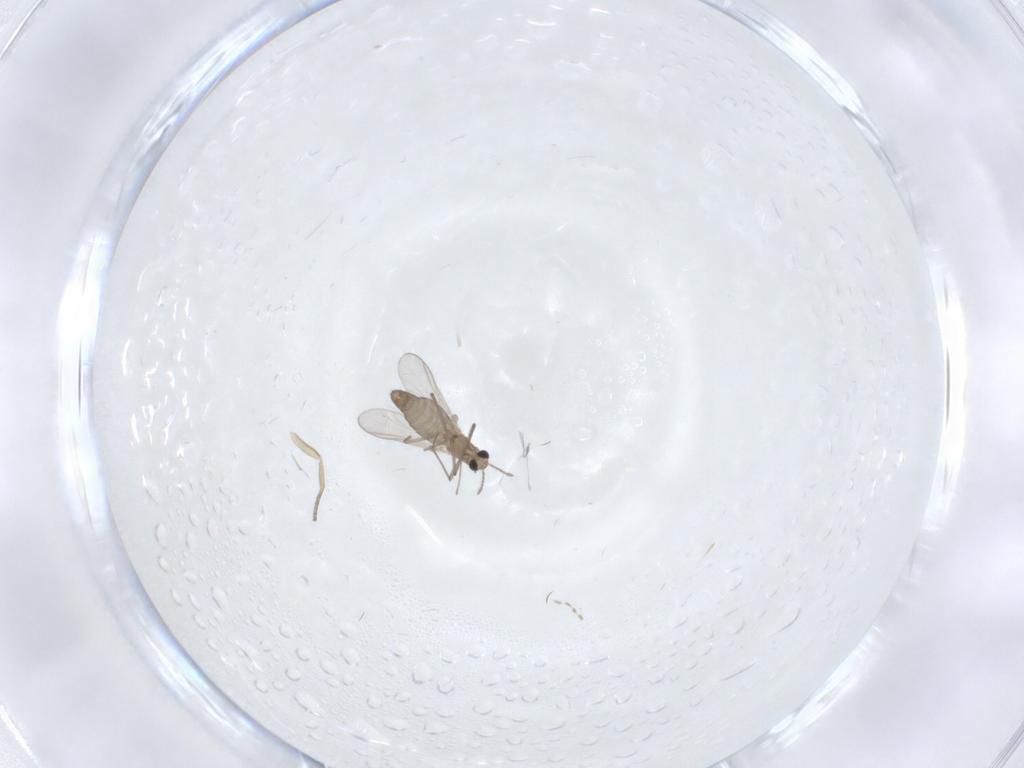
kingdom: Animalia
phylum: Arthropoda
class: Insecta
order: Diptera
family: Chironomidae
